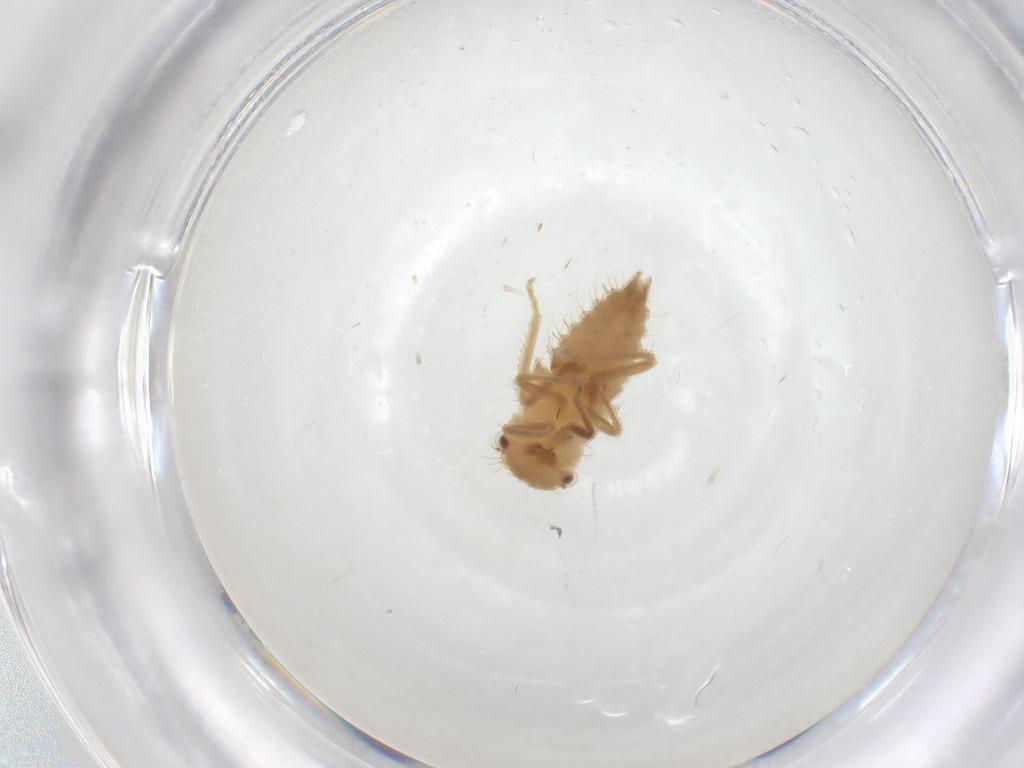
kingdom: Animalia
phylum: Arthropoda
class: Insecta
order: Hemiptera
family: Cicadellidae
